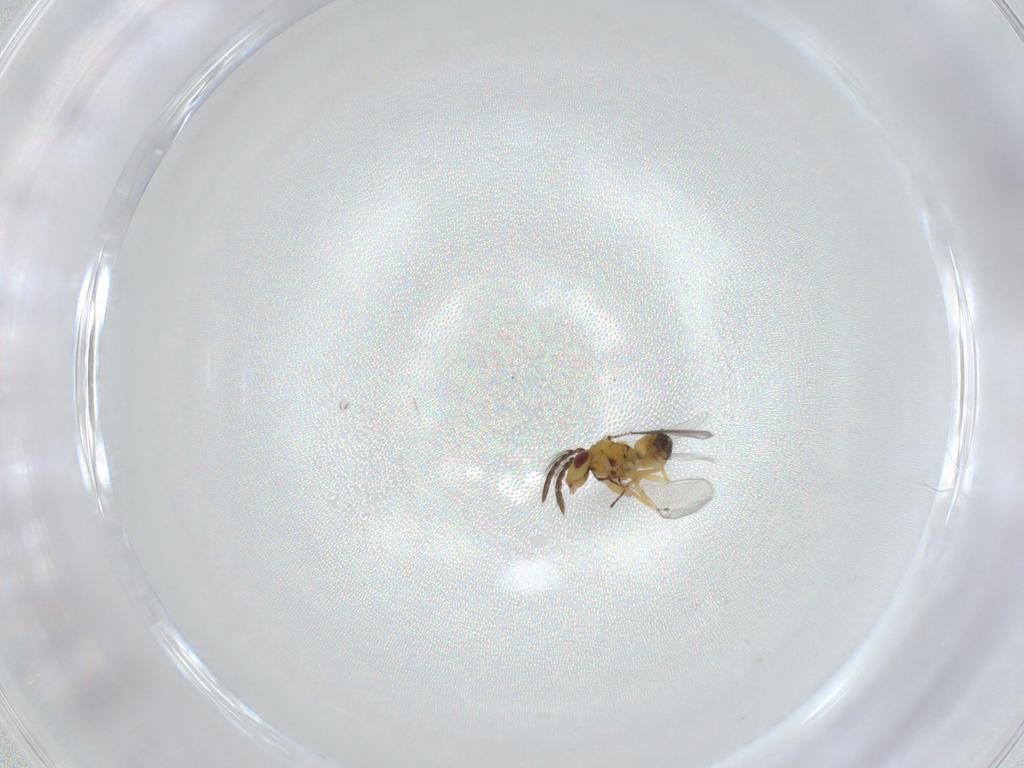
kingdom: Animalia
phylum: Arthropoda
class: Insecta
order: Hymenoptera
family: Eulophidae
